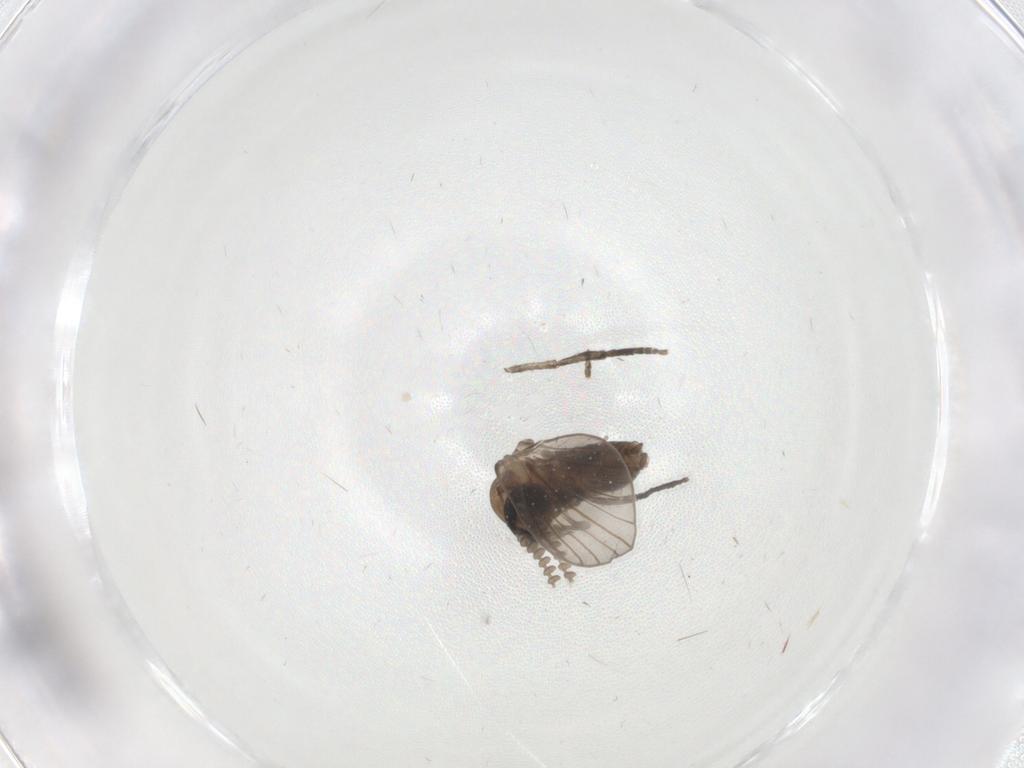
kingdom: Animalia
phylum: Arthropoda
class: Insecta
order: Diptera
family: Psychodidae
